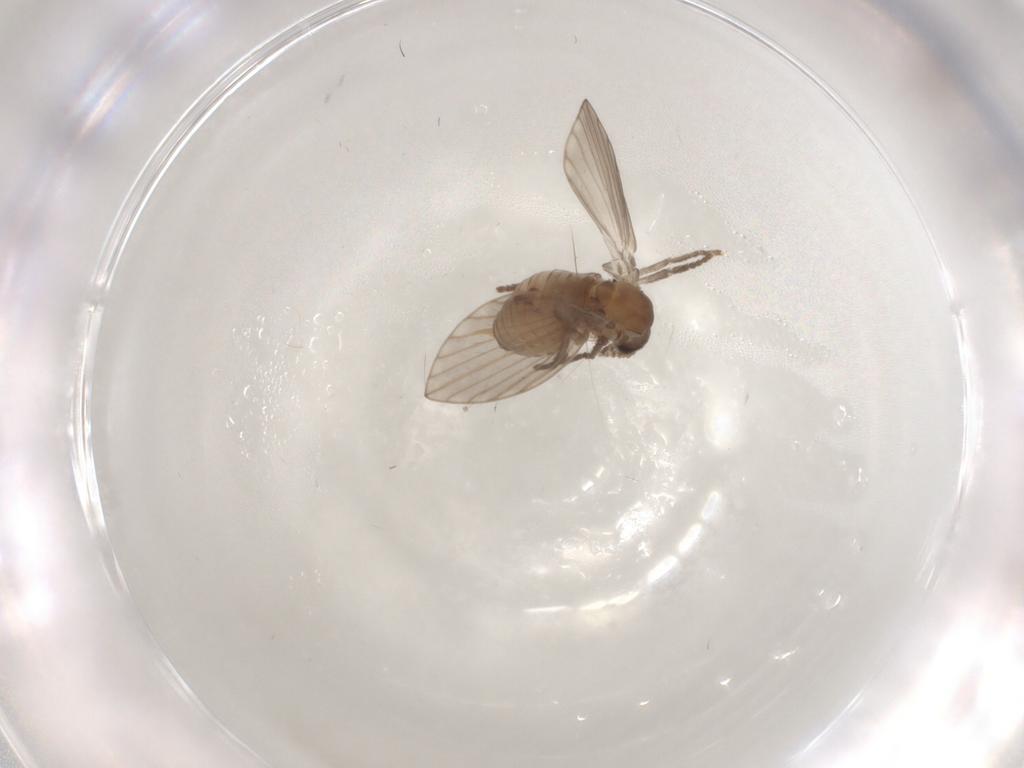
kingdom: Animalia
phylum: Arthropoda
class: Insecta
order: Diptera
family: Psychodidae
